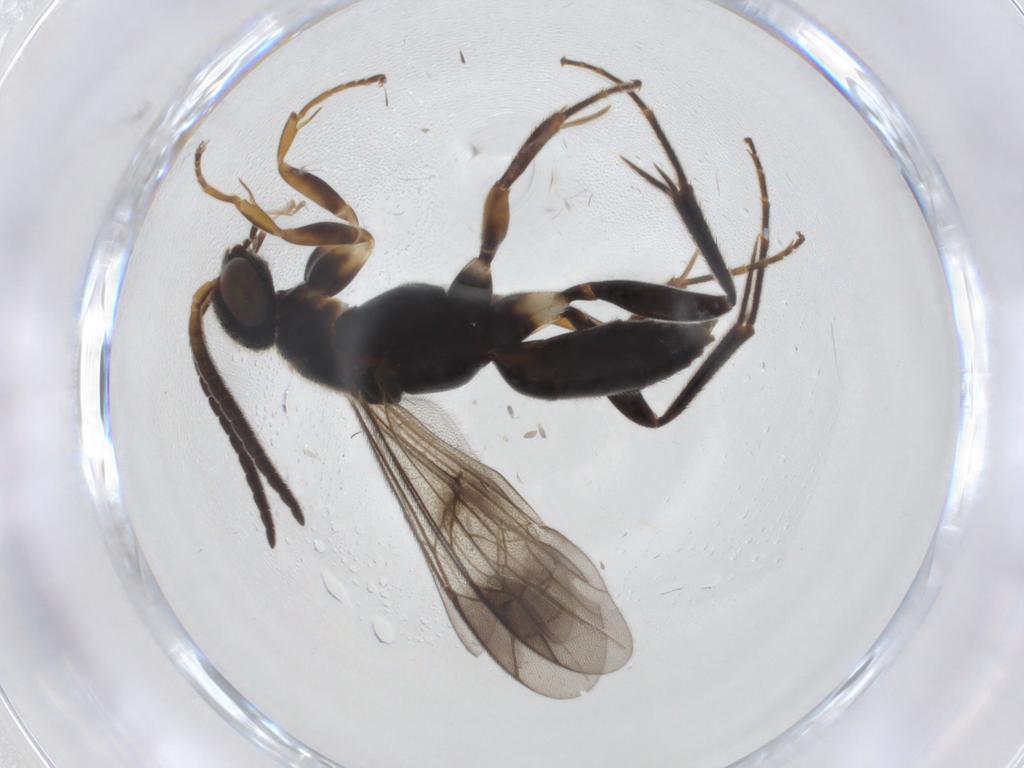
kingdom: Animalia
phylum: Arthropoda
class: Insecta
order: Hymenoptera
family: Pompilidae
